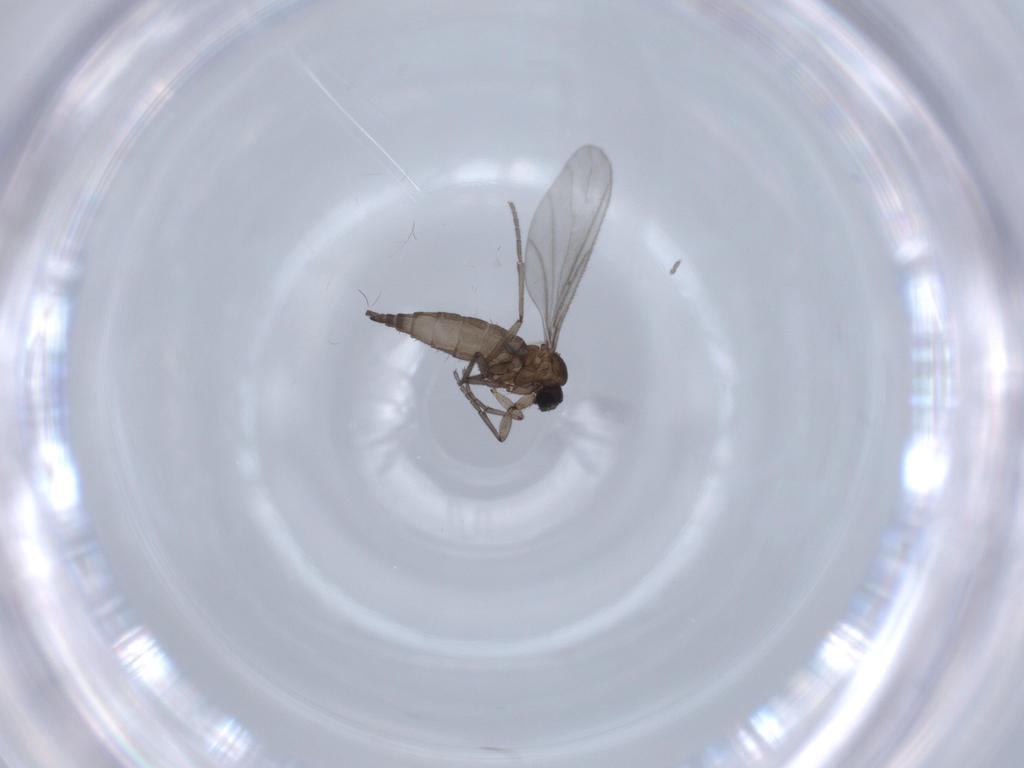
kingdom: Animalia
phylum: Arthropoda
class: Insecta
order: Diptera
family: Sciaridae
